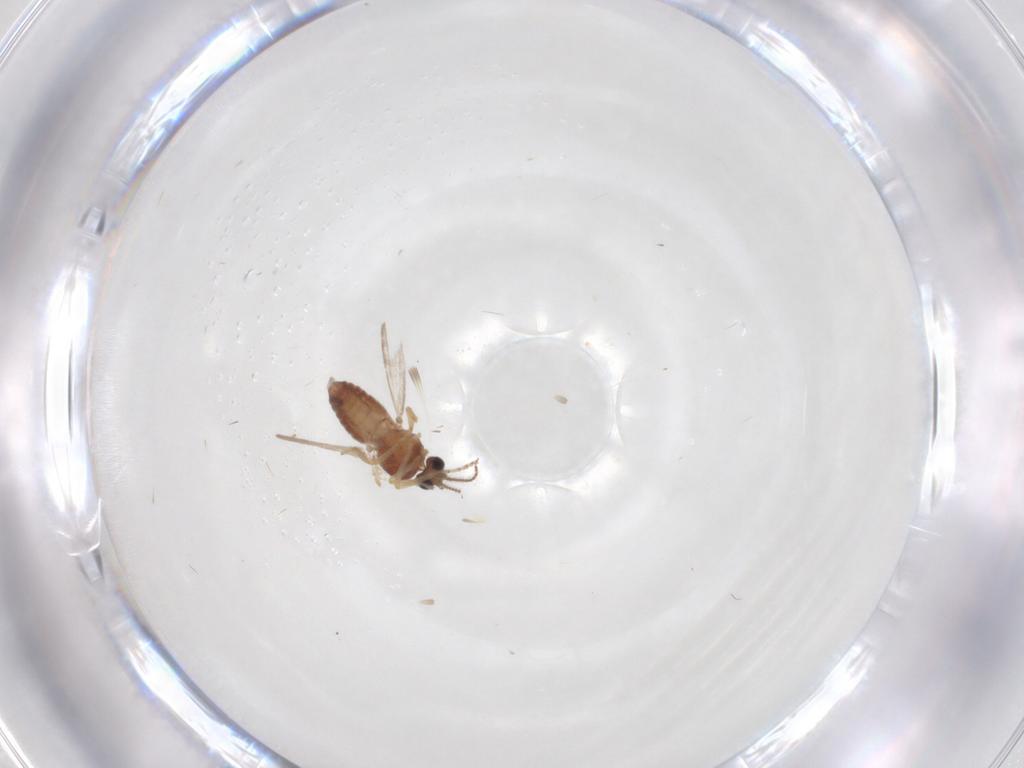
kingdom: Animalia
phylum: Arthropoda
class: Insecta
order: Diptera
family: Ceratopogonidae
